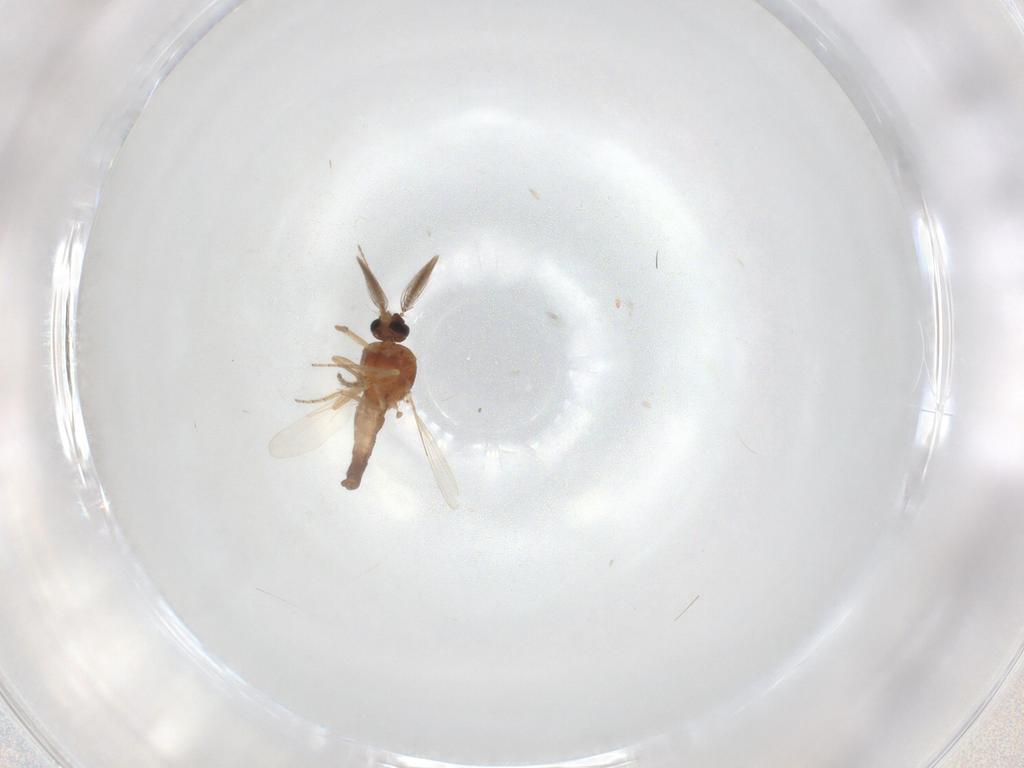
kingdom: Animalia
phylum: Arthropoda
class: Insecta
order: Diptera
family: Ceratopogonidae
